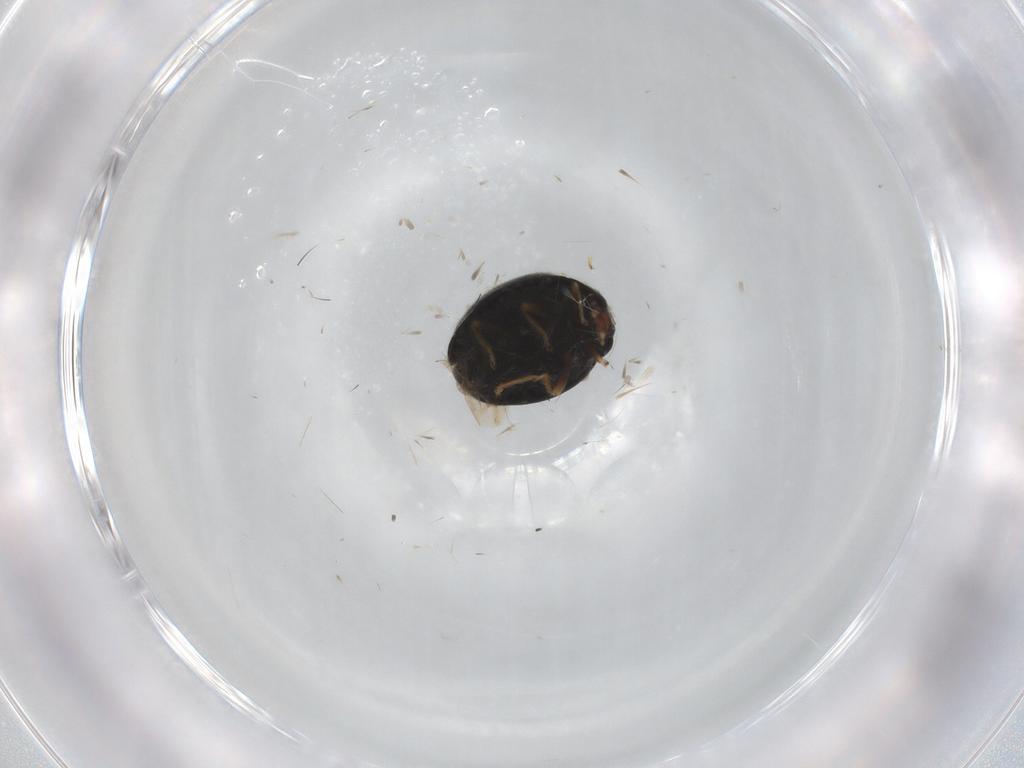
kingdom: Animalia
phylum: Arthropoda
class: Insecta
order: Coleoptera
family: Coccinellidae
